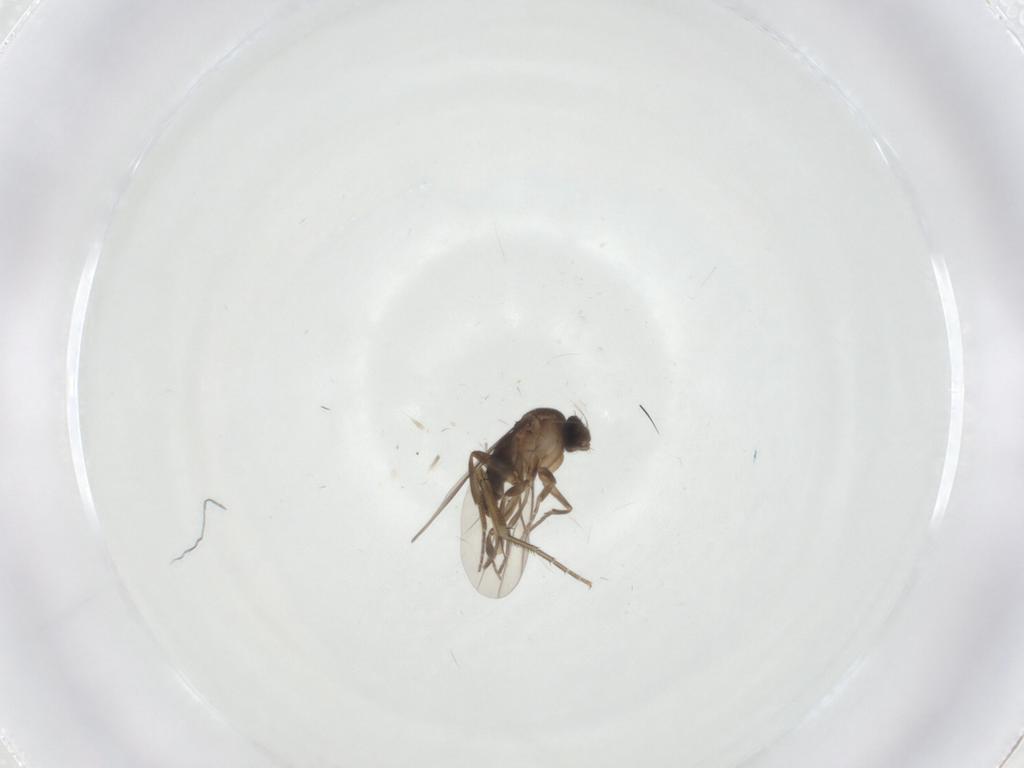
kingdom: Animalia
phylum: Arthropoda
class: Insecta
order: Diptera
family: Phoridae
